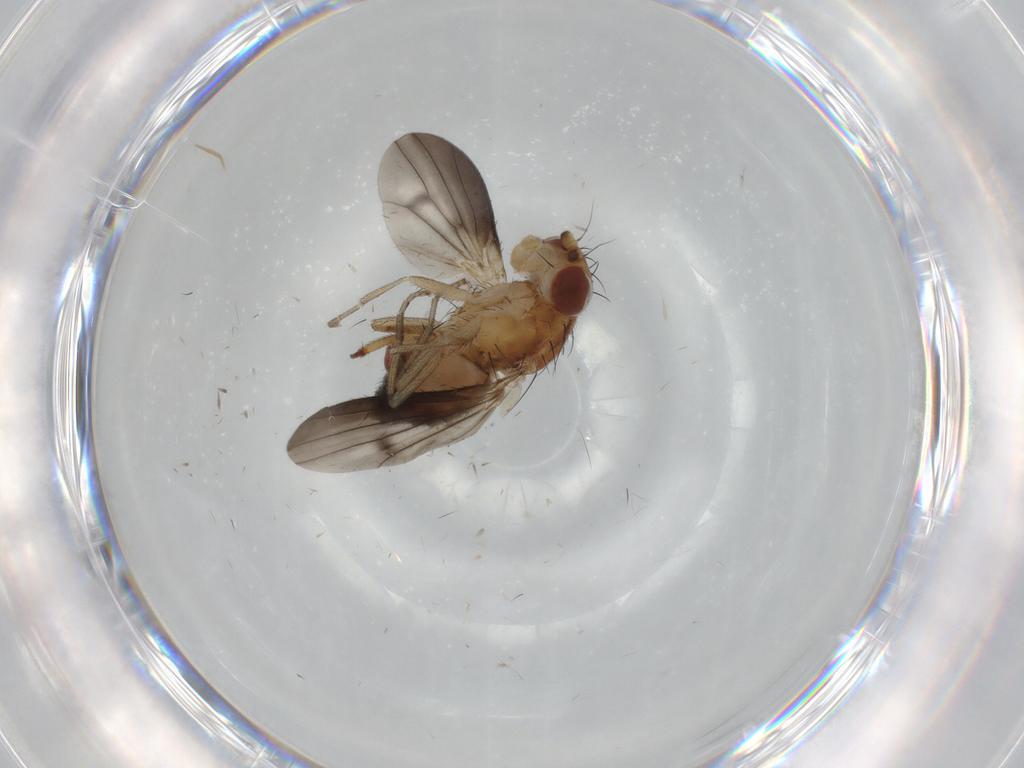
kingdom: Animalia
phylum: Arthropoda
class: Insecta
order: Diptera
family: Heleomyzidae
